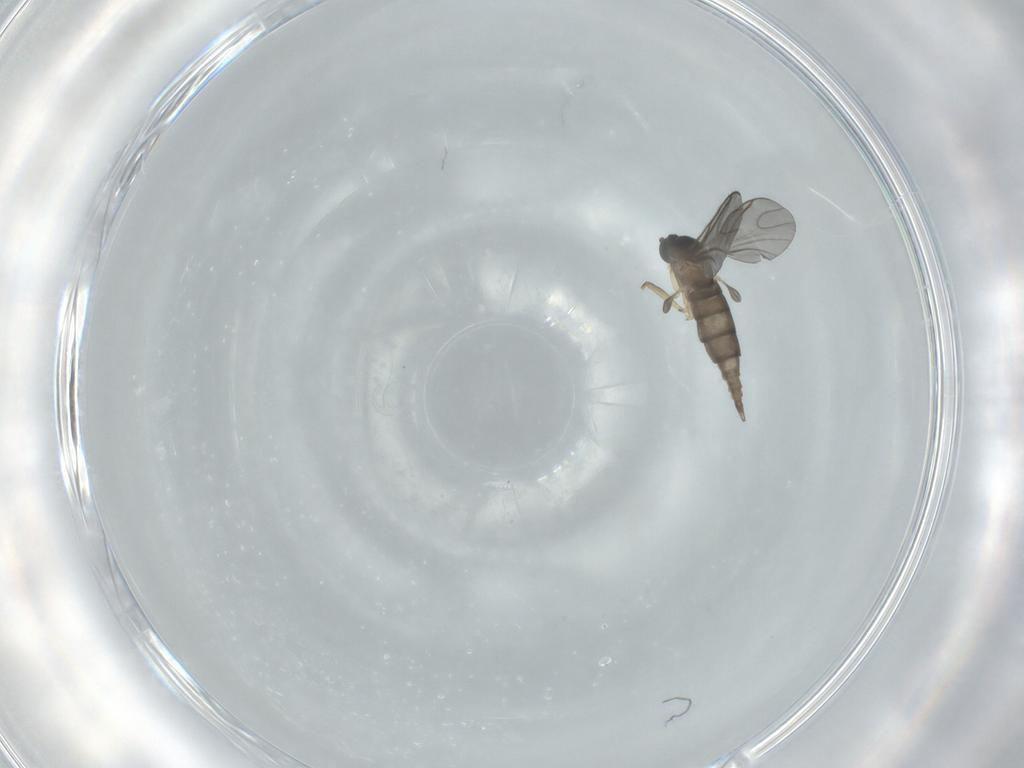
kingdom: Animalia
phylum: Arthropoda
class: Insecta
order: Diptera
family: Sciaridae
